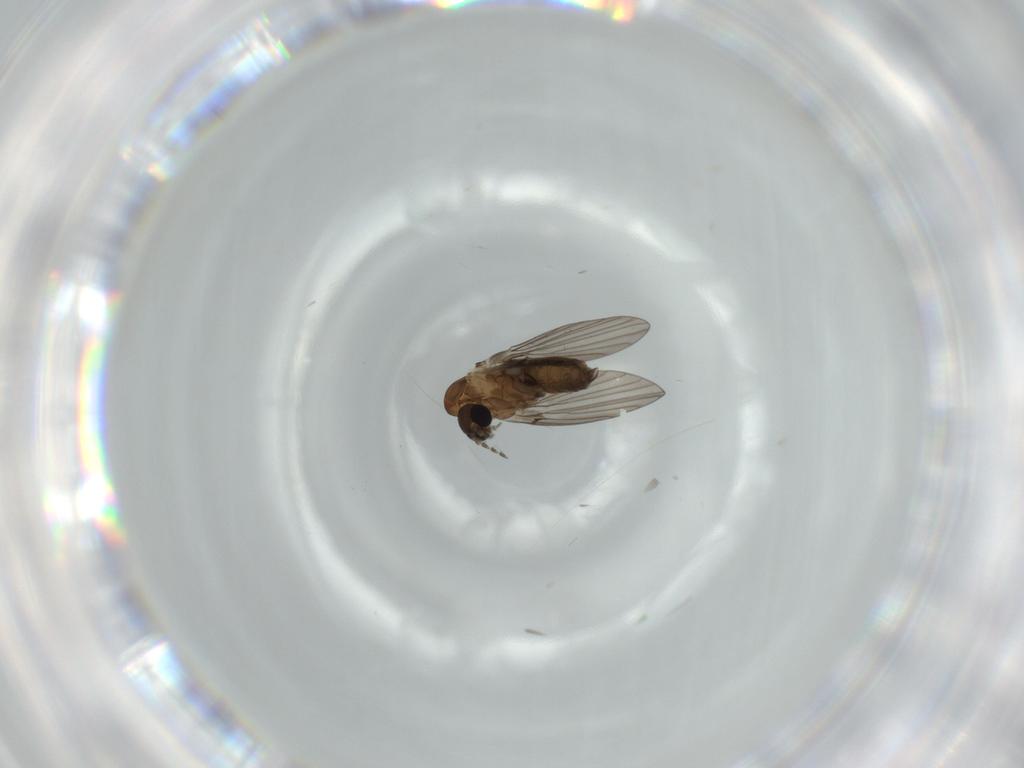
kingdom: Animalia
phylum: Arthropoda
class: Insecta
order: Diptera
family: Psychodidae
